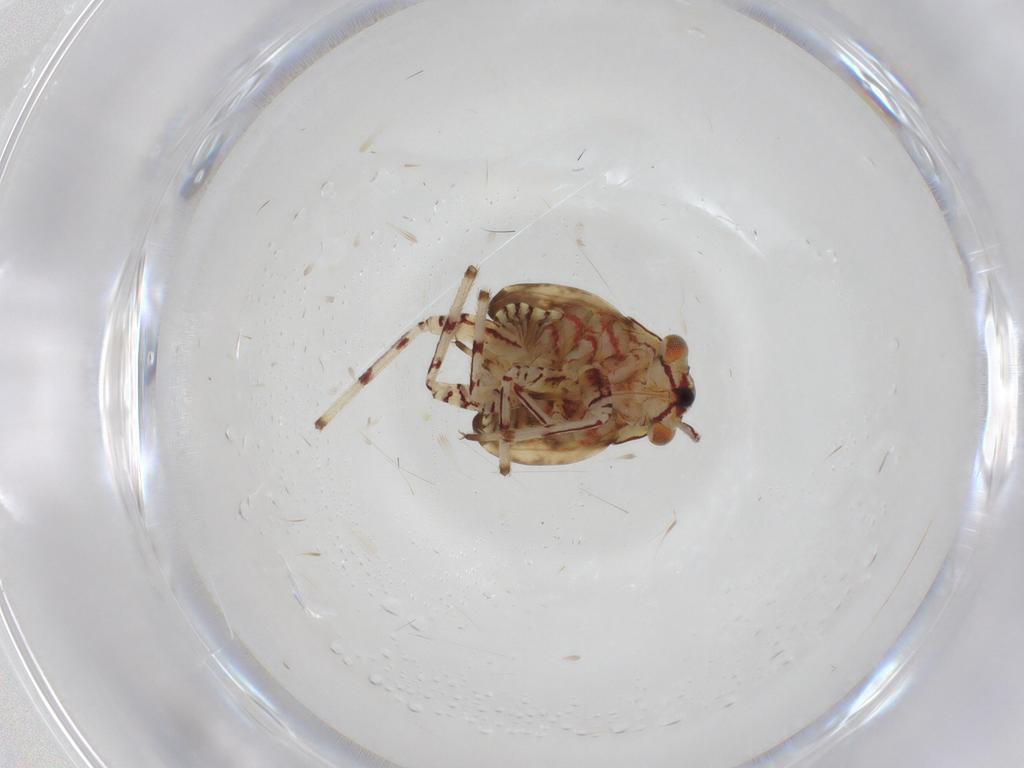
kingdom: Animalia
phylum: Arthropoda
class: Insecta
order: Hemiptera
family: Miridae
